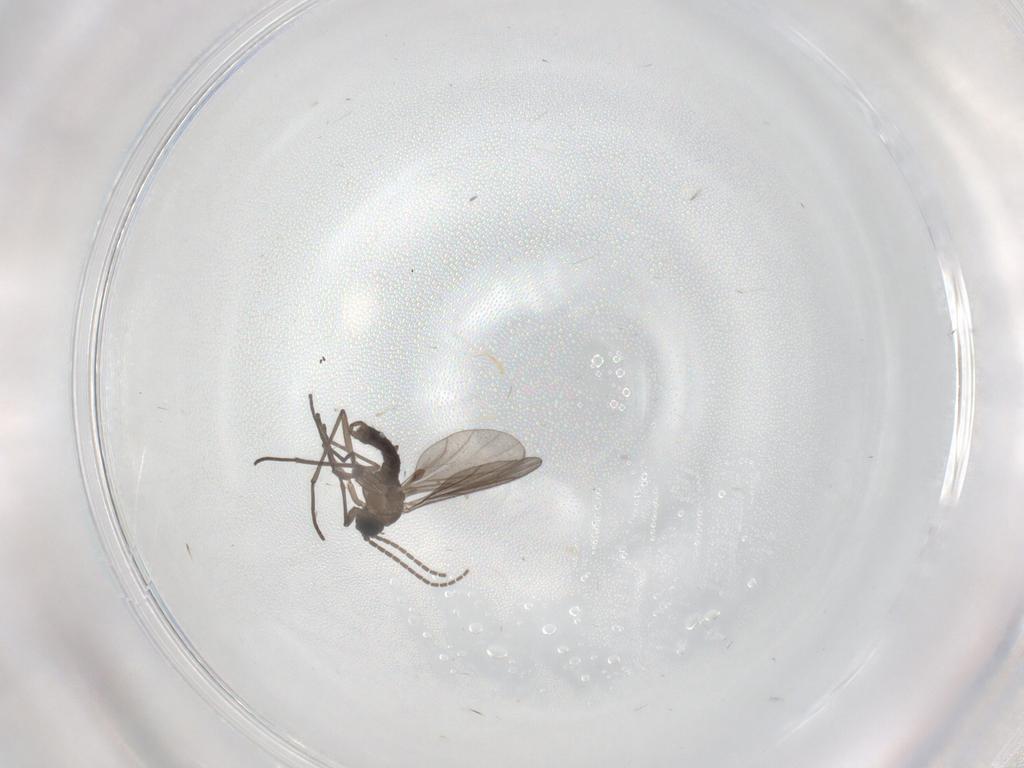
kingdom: Animalia
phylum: Arthropoda
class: Insecta
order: Diptera
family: Sciaridae
